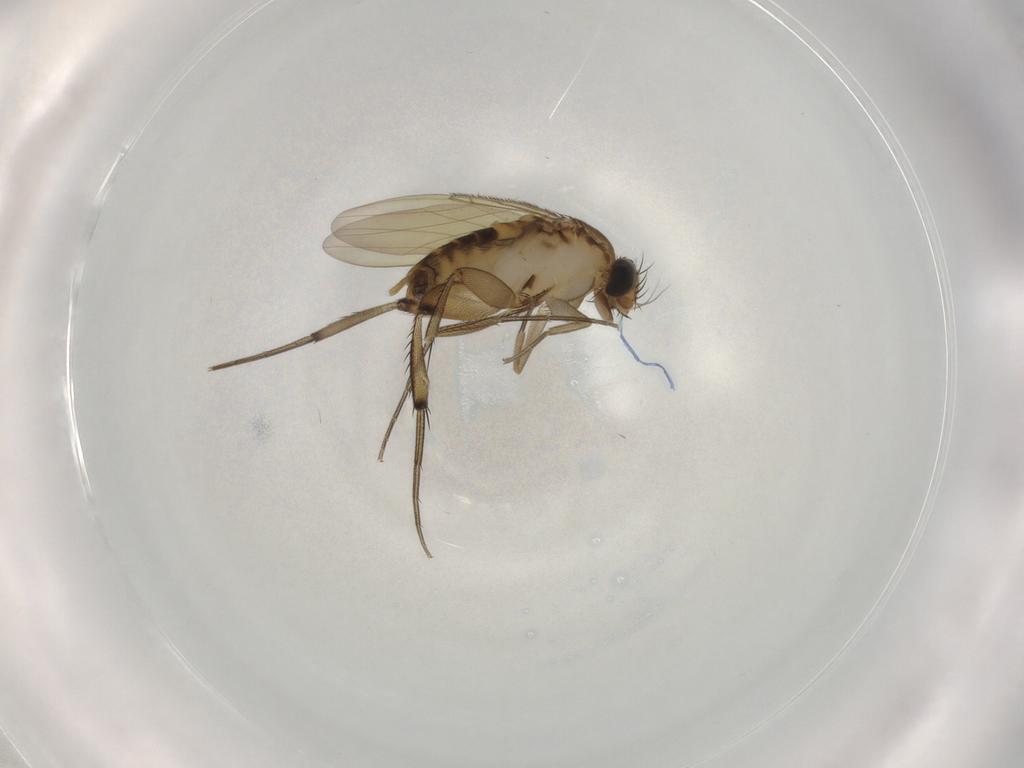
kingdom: Animalia
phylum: Arthropoda
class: Insecta
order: Diptera
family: Phoridae
